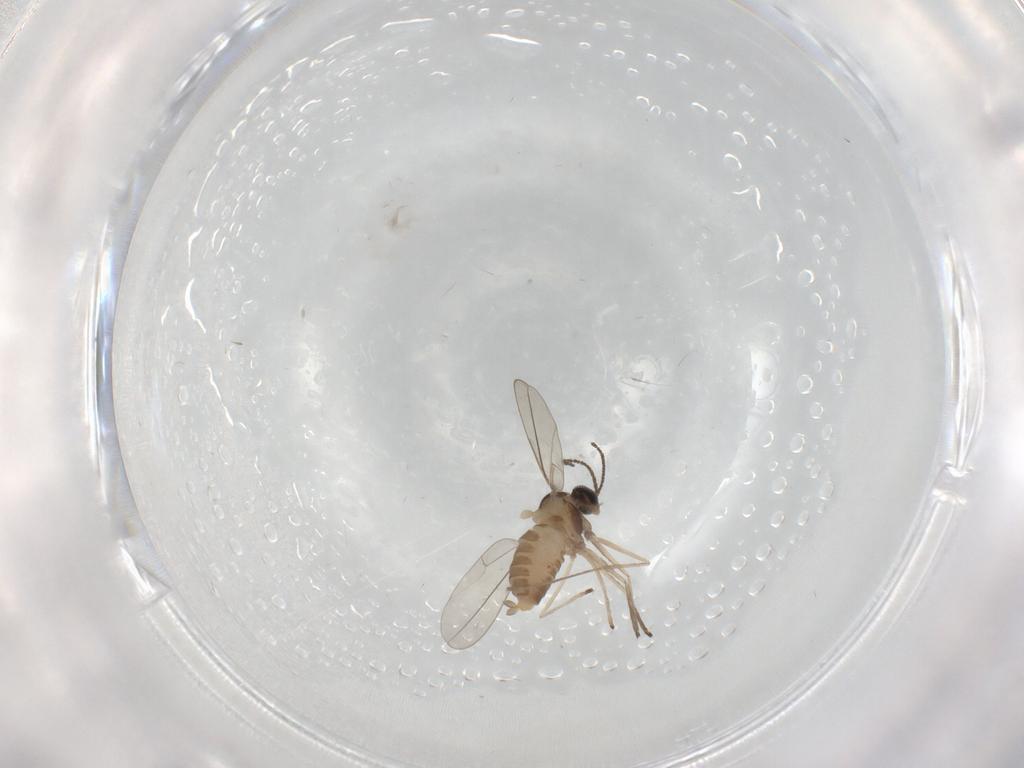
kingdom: Animalia
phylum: Arthropoda
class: Insecta
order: Diptera
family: Cecidomyiidae
